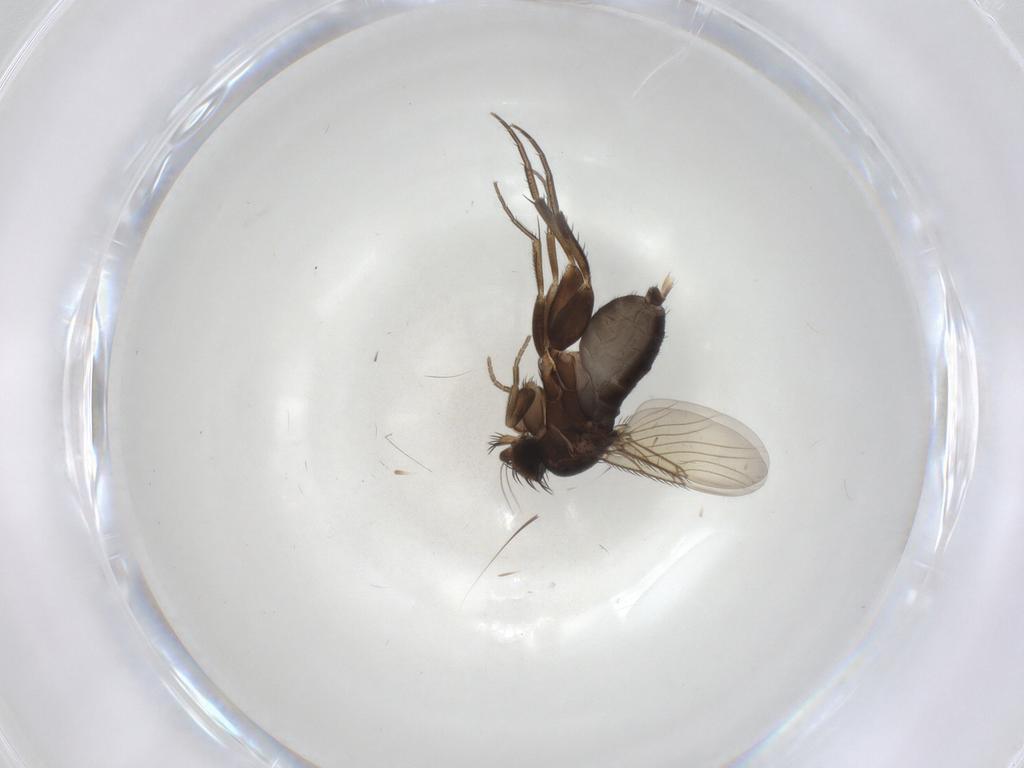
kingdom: Animalia
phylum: Arthropoda
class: Insecta
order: Diptera
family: Phoridae
